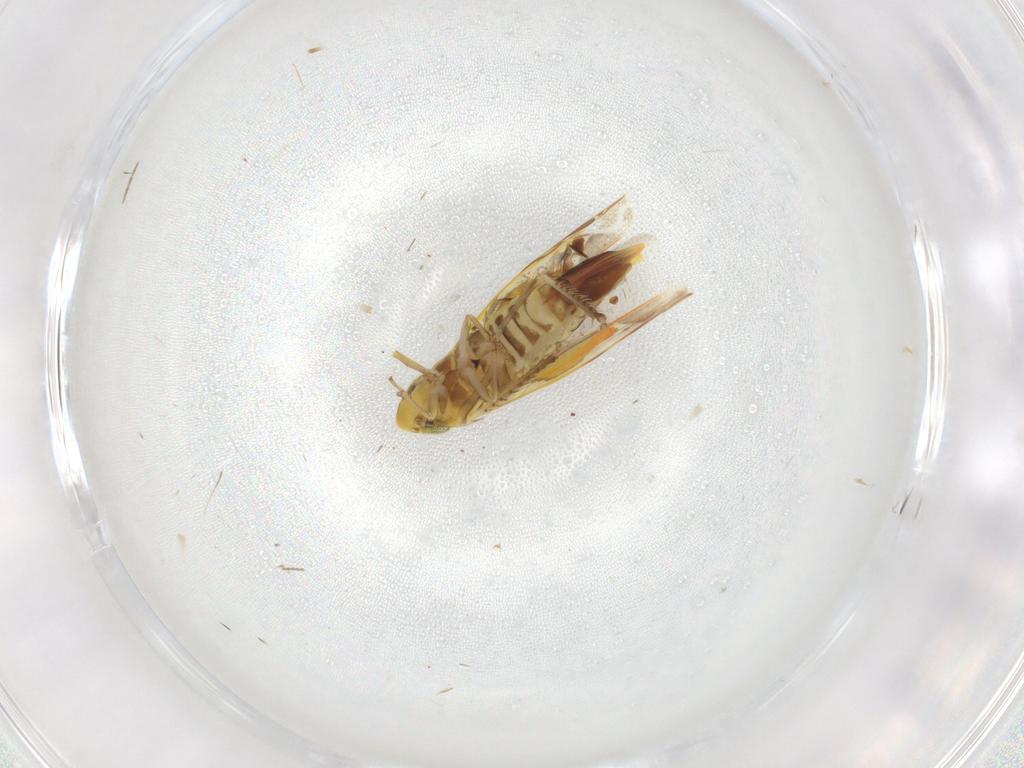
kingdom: Animalia
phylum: Arthropoda
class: Insecta
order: Hemiptera
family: Cicadellidae
